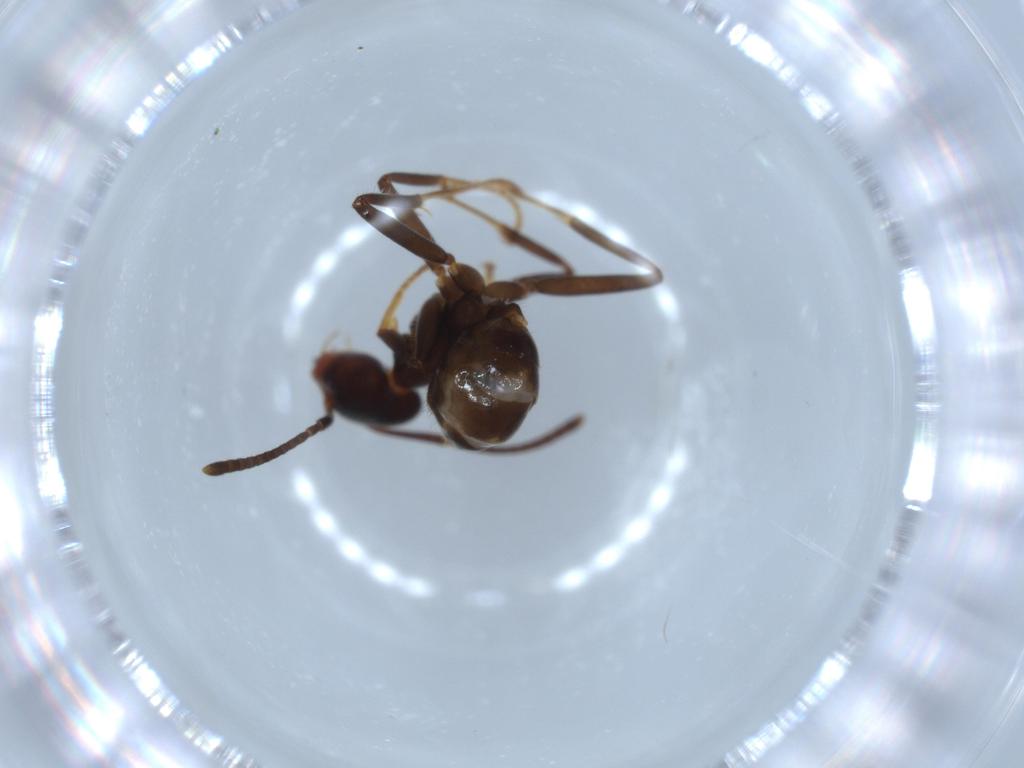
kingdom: Animalia
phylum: Arthropoda
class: Insecta
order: Hymenoptera
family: Formicidae
